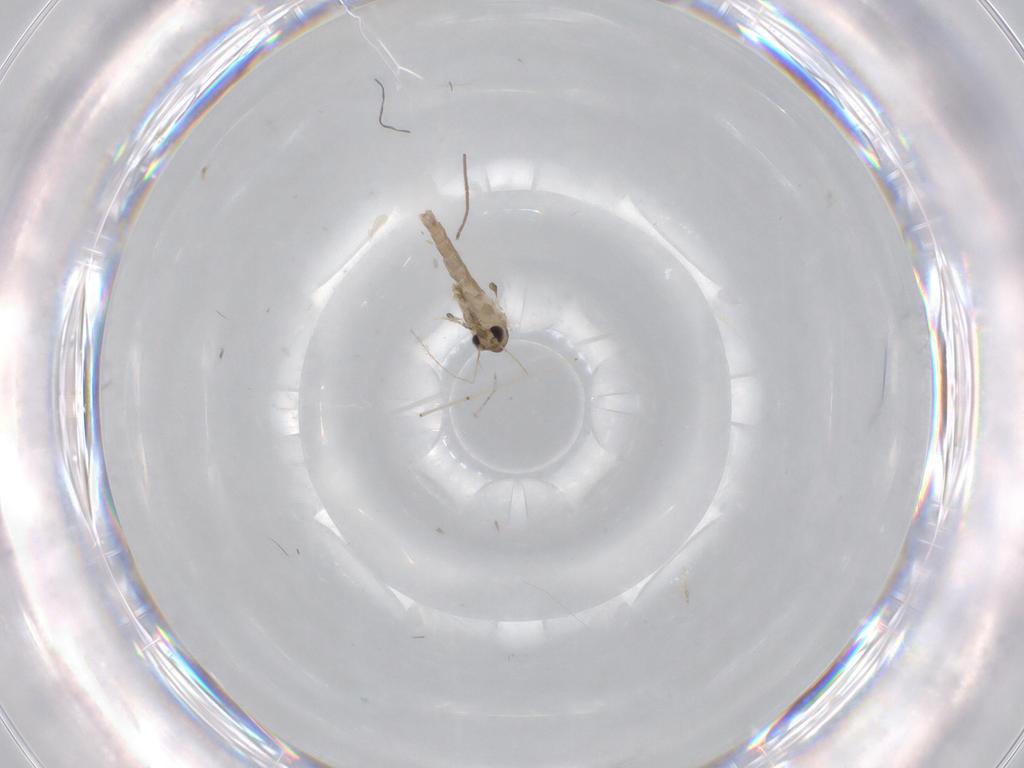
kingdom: Animalia
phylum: Arthropoda
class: Insecta
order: Diptera
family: Psychodidae
